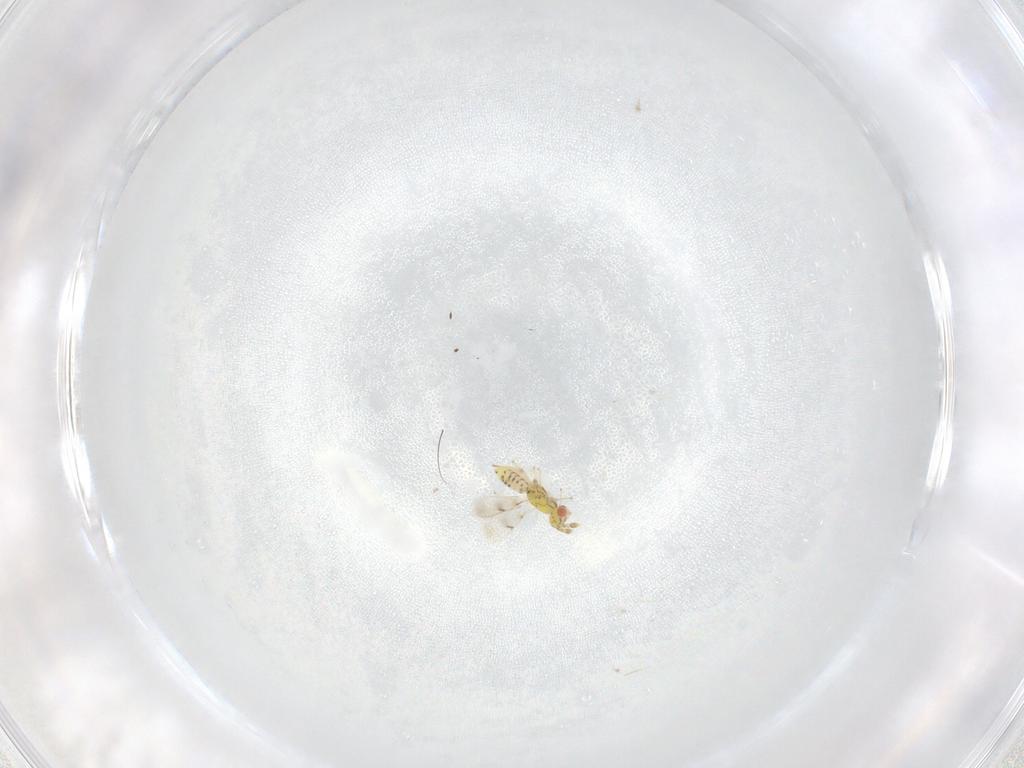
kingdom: Animalia
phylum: Arthropoda
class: Insecta
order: Hymenoptera
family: Eulophidae
